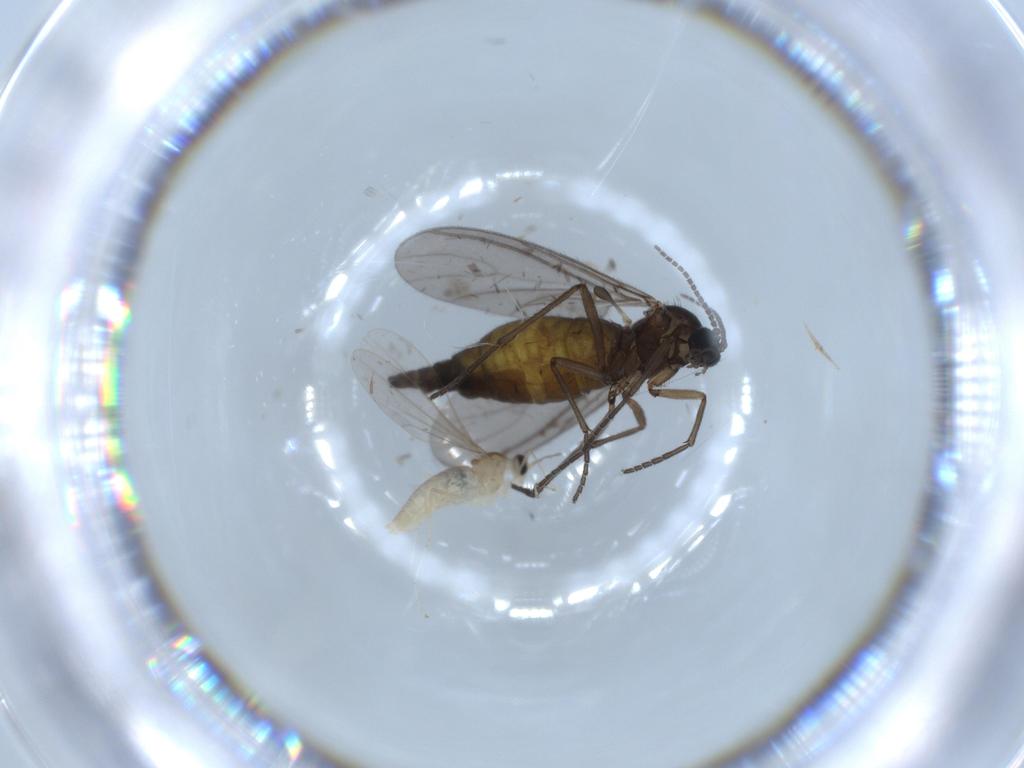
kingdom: Animalia
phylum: Arthropoda
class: Insecta
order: Diptera
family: Sciaridae
